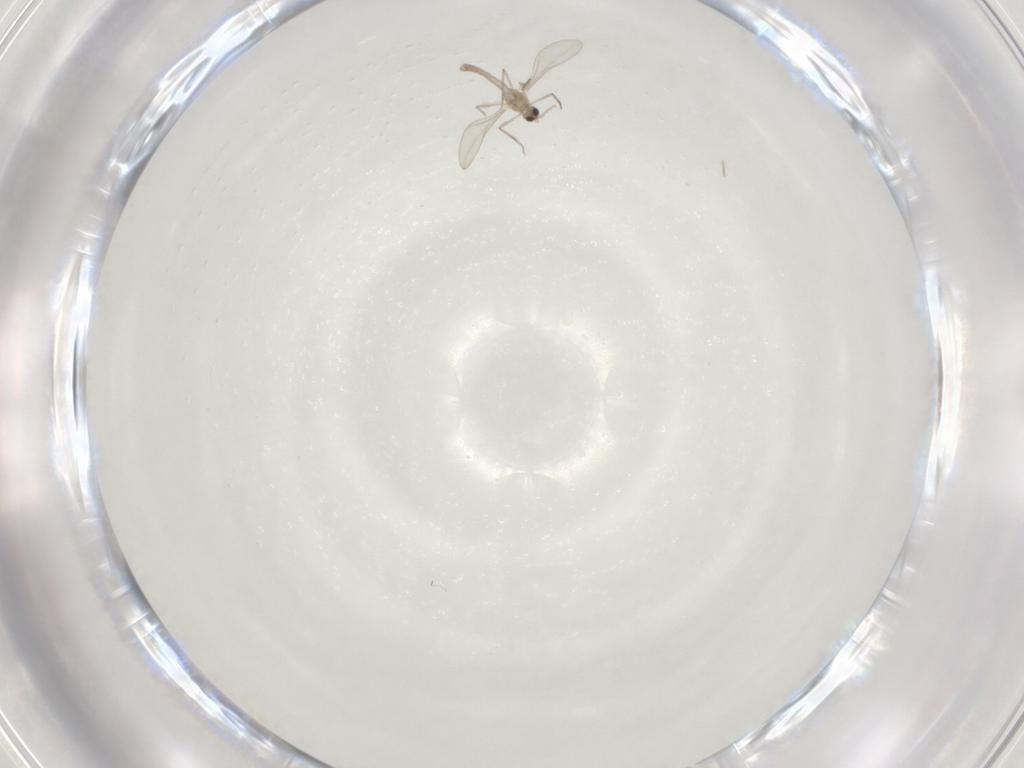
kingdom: Animalia
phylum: Arthropoda
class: Insecta
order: Diptera
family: Cecidomyiidae
